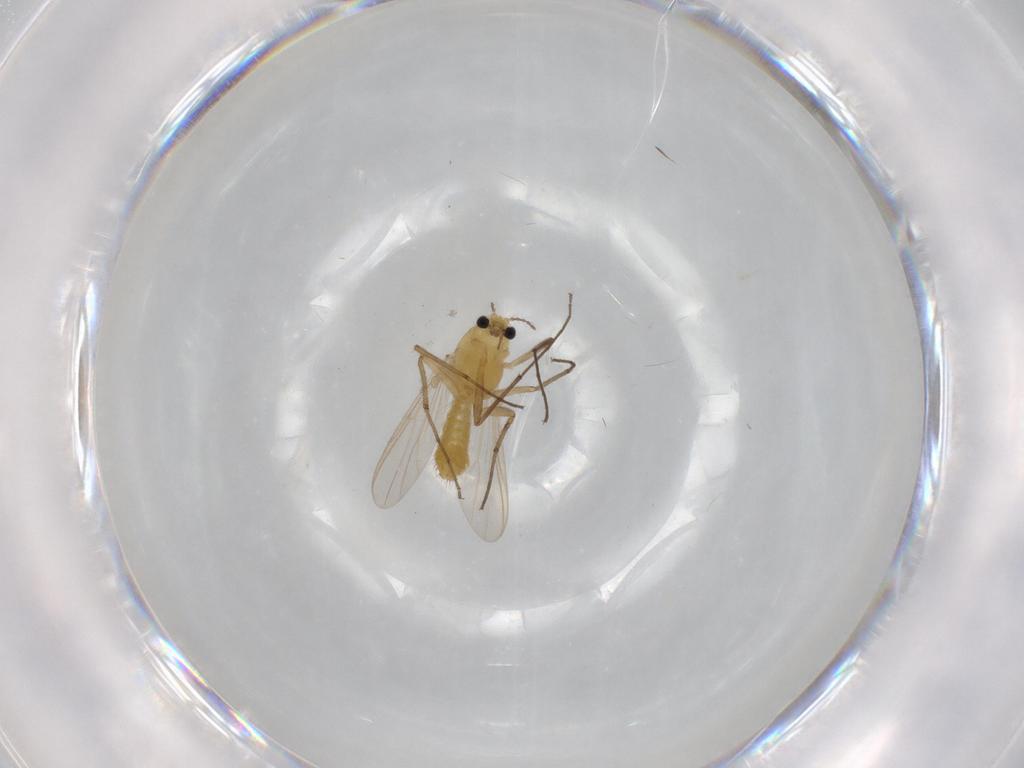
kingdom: Animalia
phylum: Arthropoda
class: Insecta
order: Diptera
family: Chironomidae
